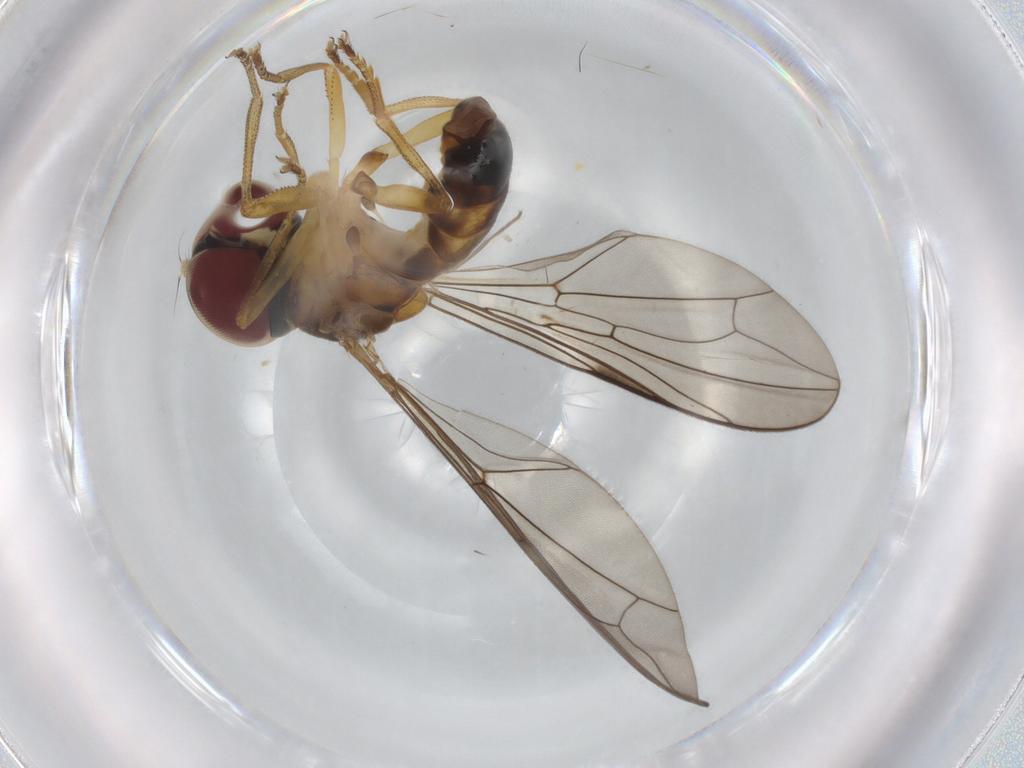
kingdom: Animalia
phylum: Arthropoda
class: Insecta
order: Diptera
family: Pipunculidae
